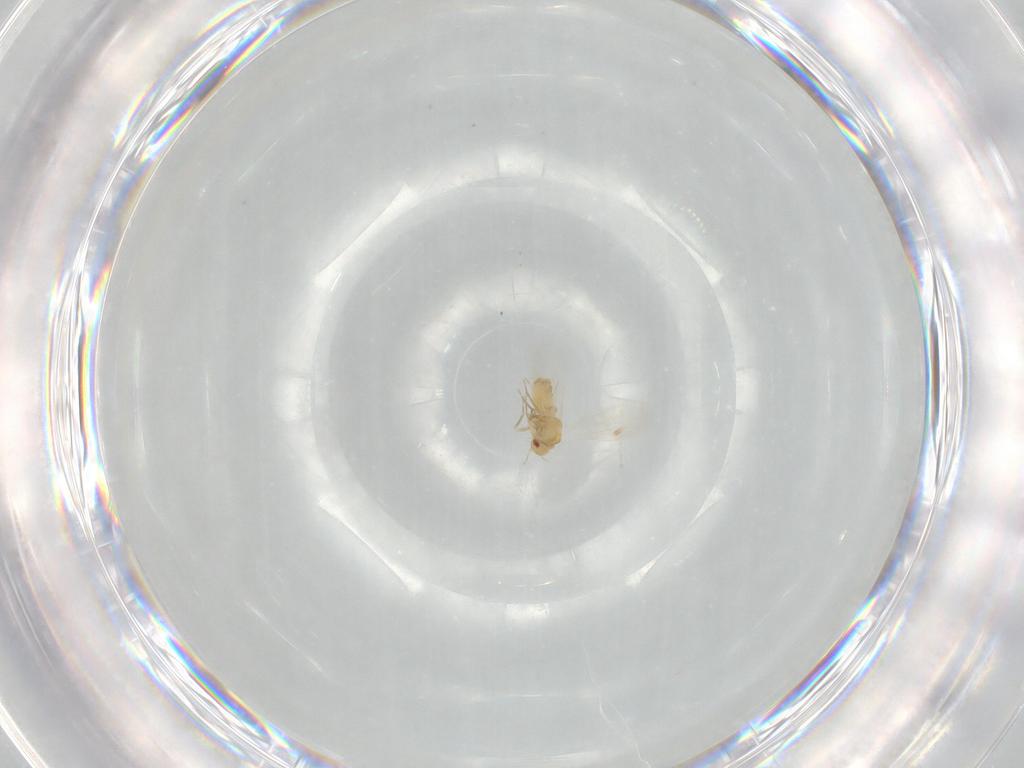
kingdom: Animalia
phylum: Arthropoda
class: Insecta
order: Hemiptera
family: Aleyrodidae
